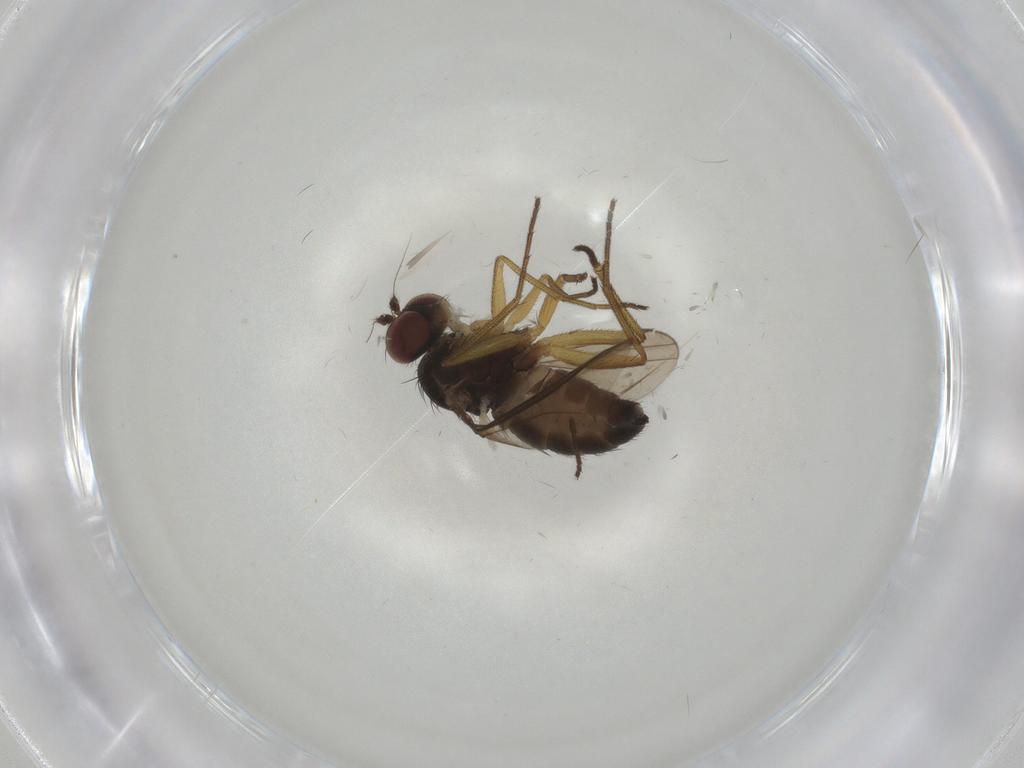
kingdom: Animalia
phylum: Arthropoda
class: Insecta
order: Diptera
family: Dolichopodidae
